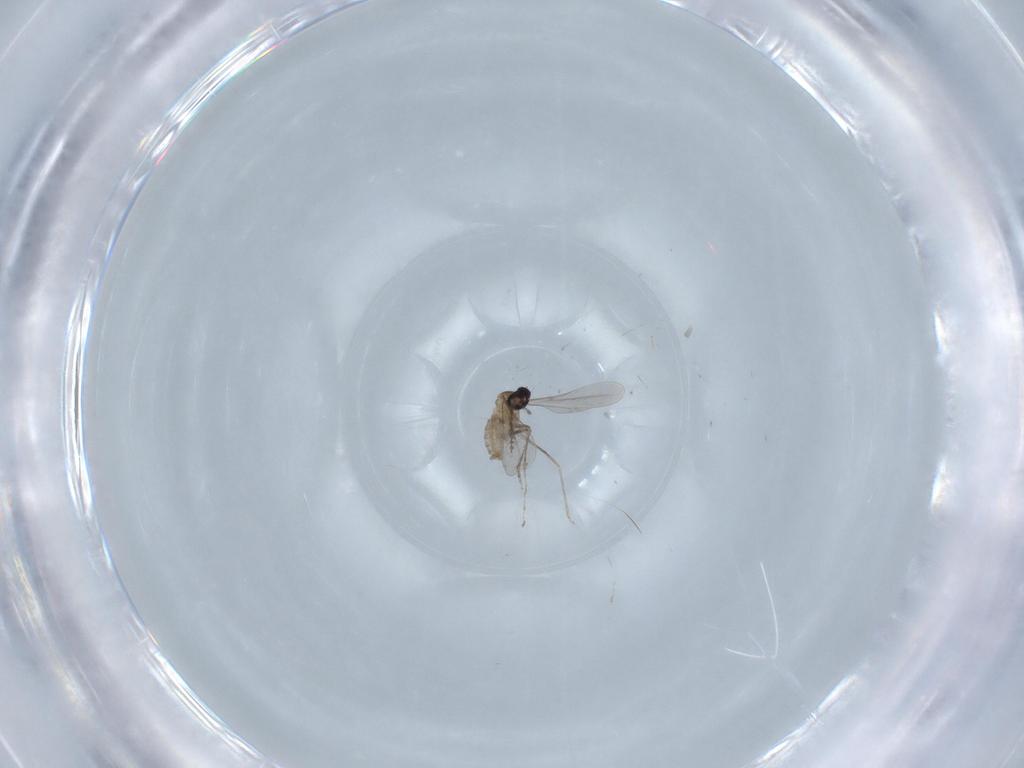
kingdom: Animalia
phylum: Arthropoda
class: Insecta
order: Diptera
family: Cecidomyiidae
